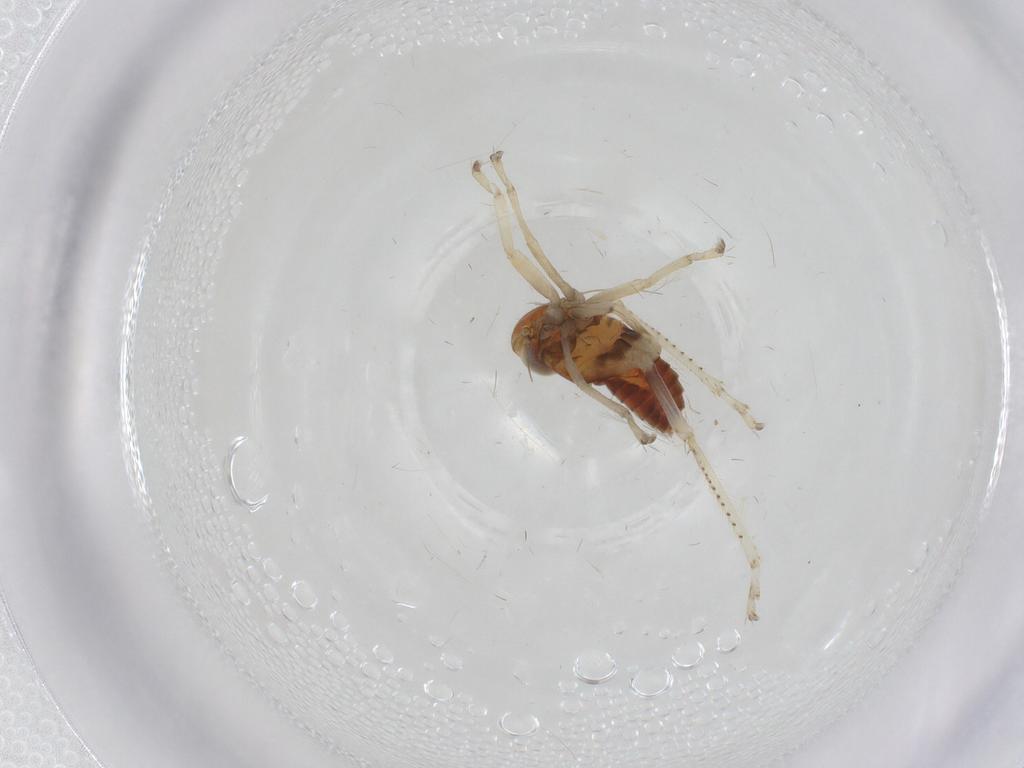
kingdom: Animalia
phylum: Arthropoda
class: Insecta
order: Hemiptera
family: Cicadellidae
